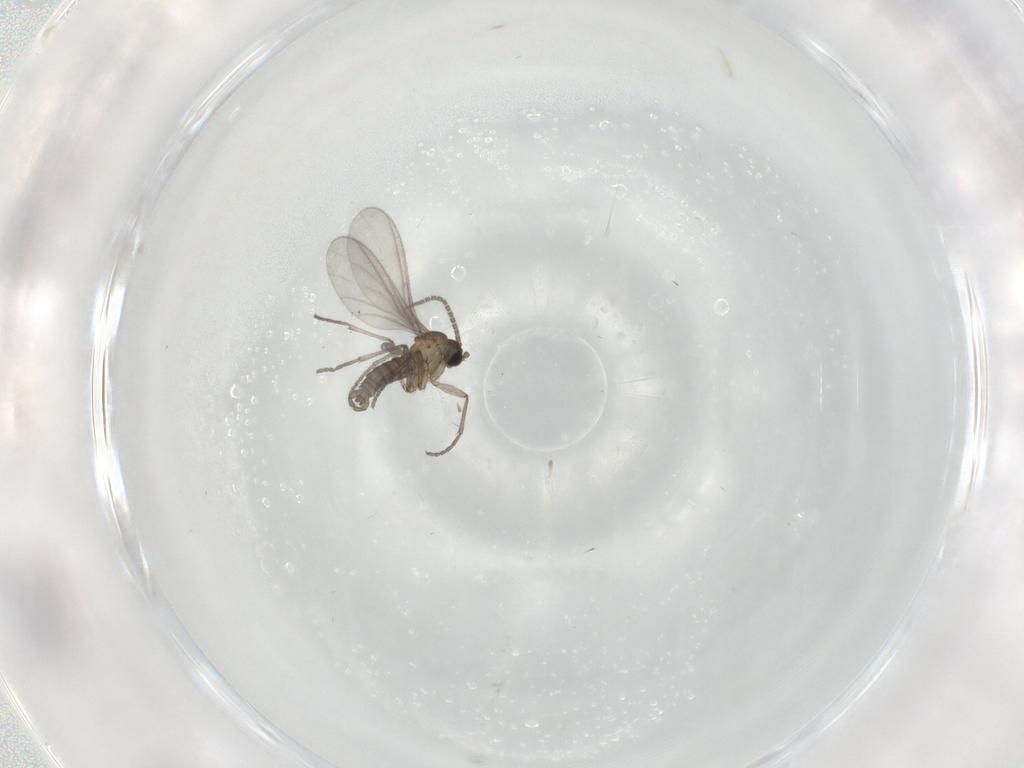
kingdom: Animalia
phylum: Arthropoda
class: Insecta
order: Diptera
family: Sciaridae
